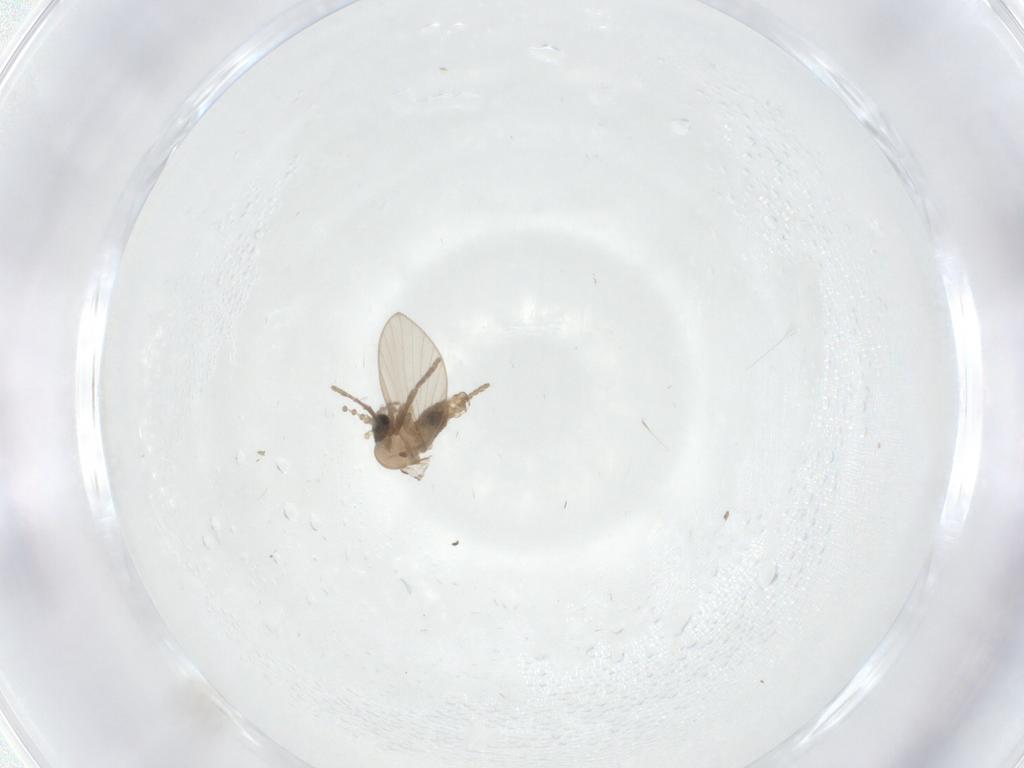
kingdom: Animalia
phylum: Arthropoda
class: Insecta
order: Diptera
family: Psychodidae
